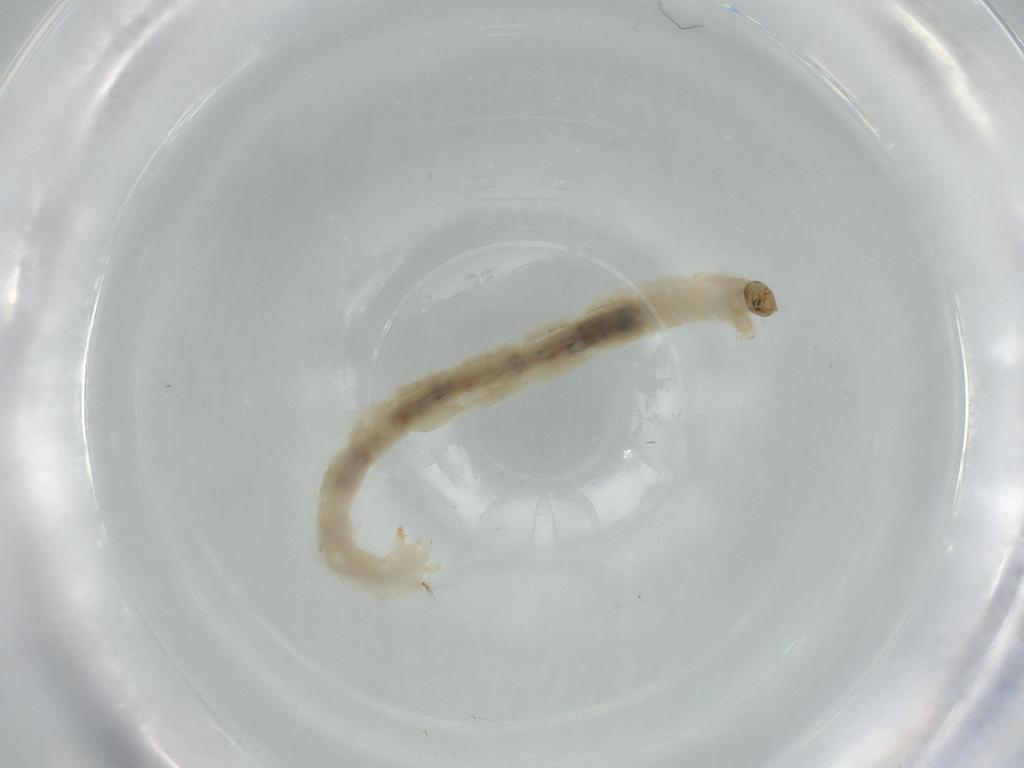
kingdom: Animalia
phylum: Arthropoda
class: Insecta
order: Diptera
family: Chironomidae
